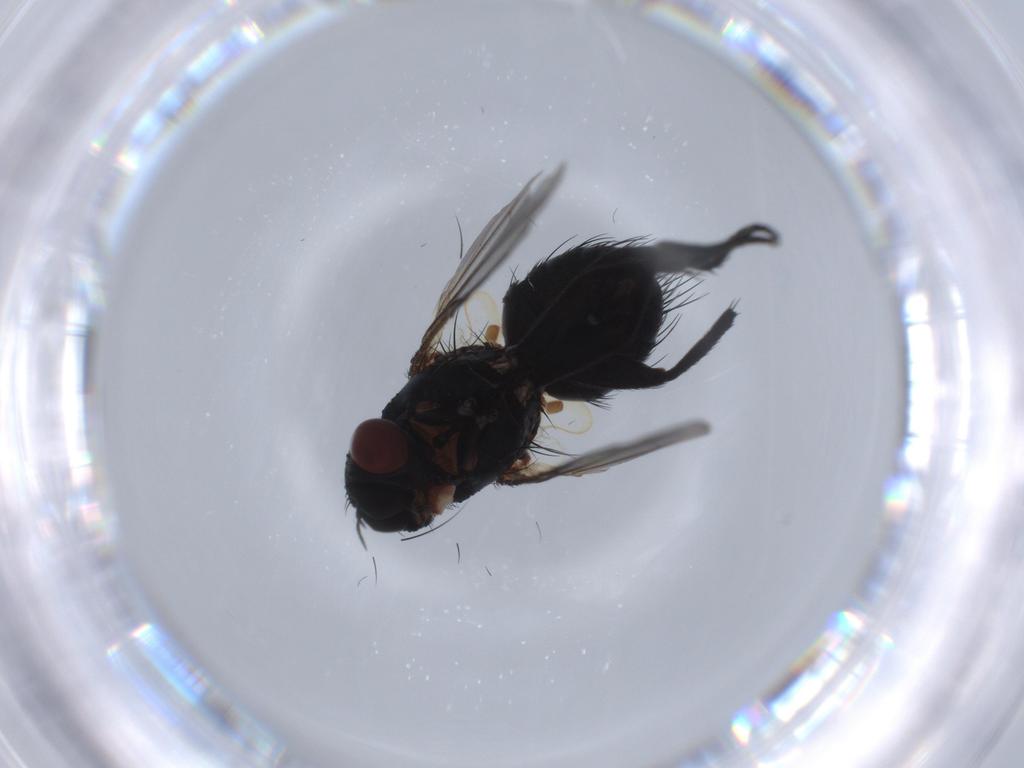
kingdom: Animalia
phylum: Arthropoda
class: Insecta
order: Diptera
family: Tachinidae
